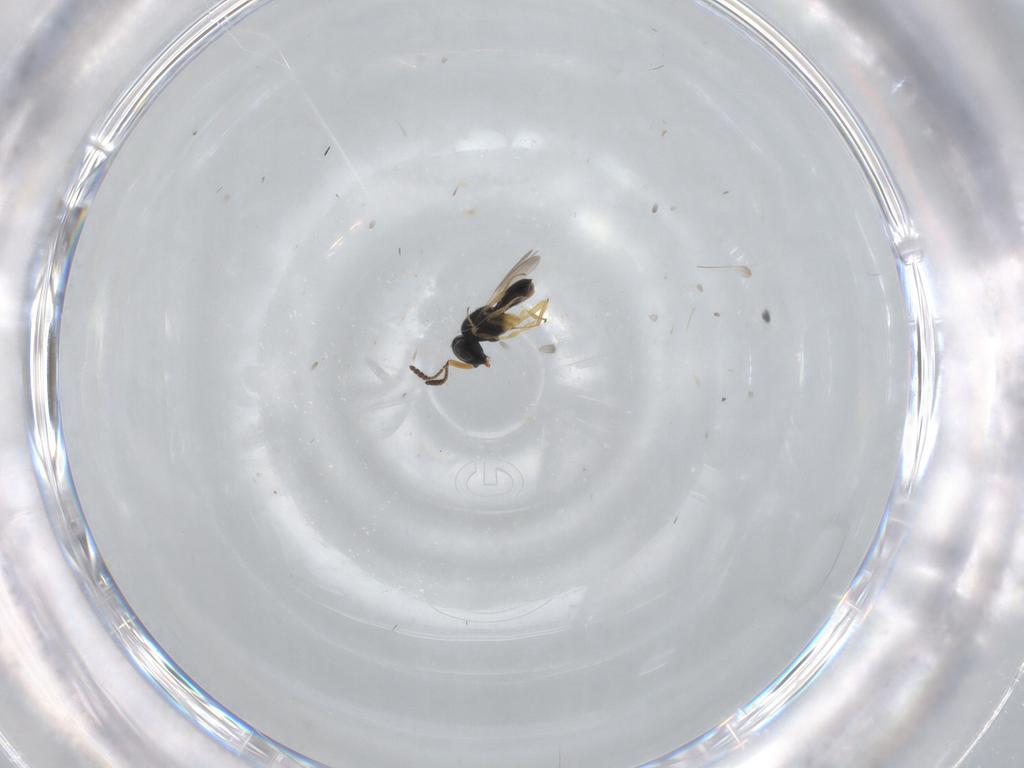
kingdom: Animalia
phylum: Arthropoda
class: Insecta
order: Hymenoptera
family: Scelionidae
